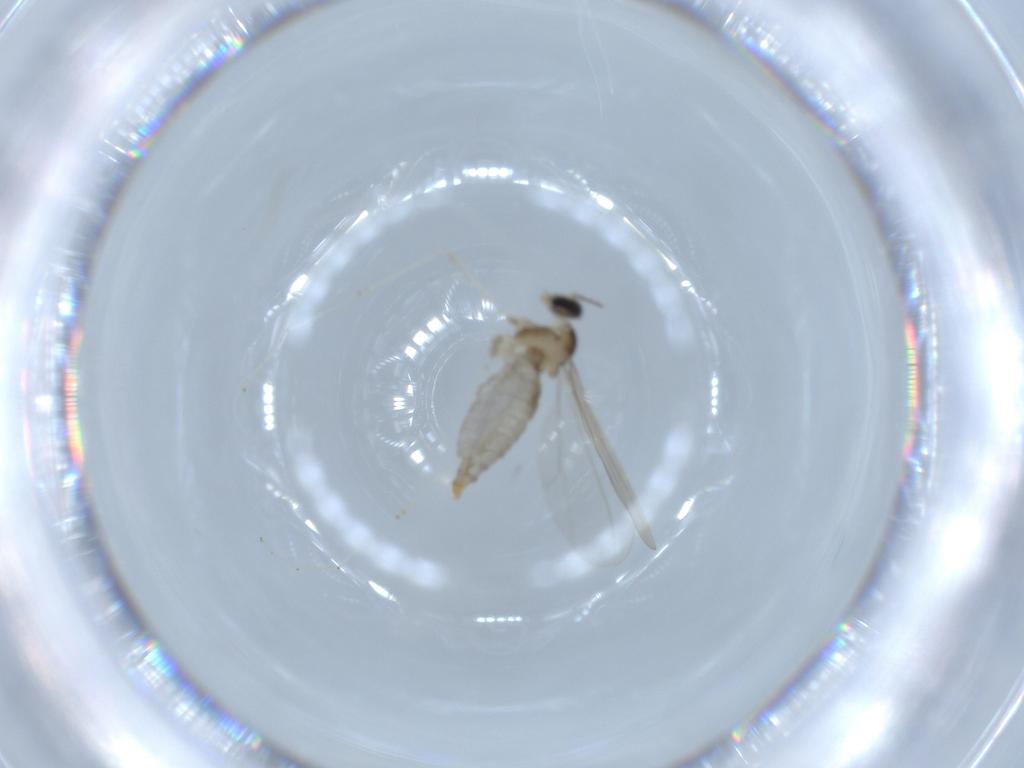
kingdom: Animalia
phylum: Arthropoda
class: Insecta
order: Diptera
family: Cecidomyiidae
